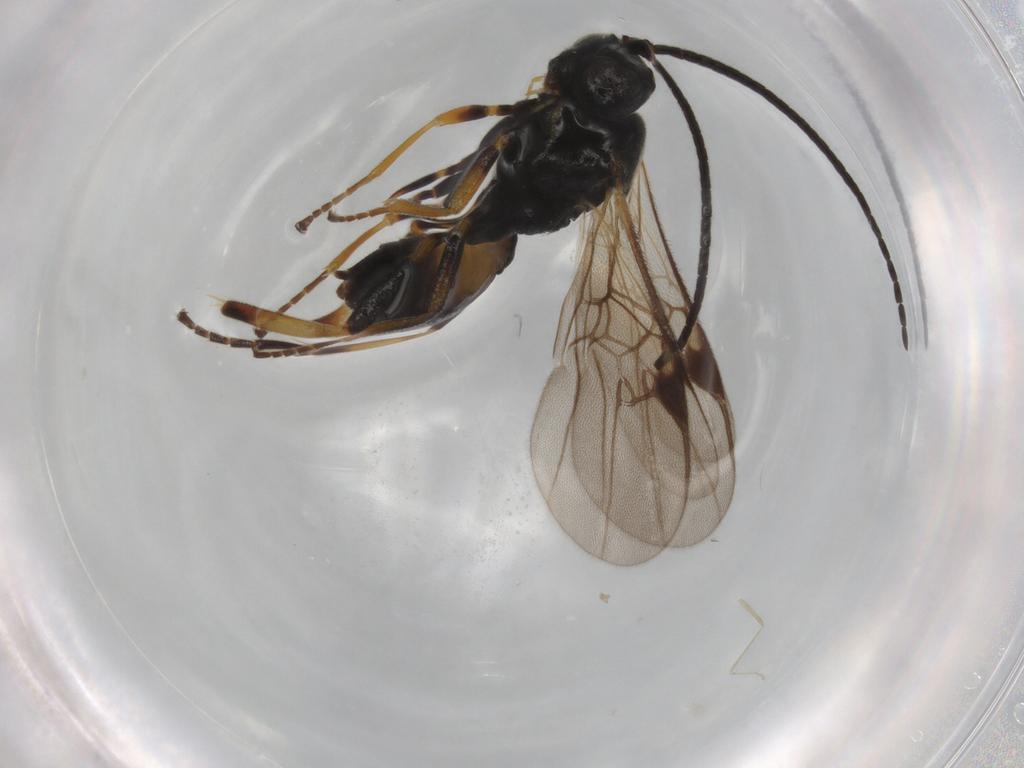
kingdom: Animalia
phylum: Arthropoda
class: Insecta
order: Hymenoptera
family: Braconidae
